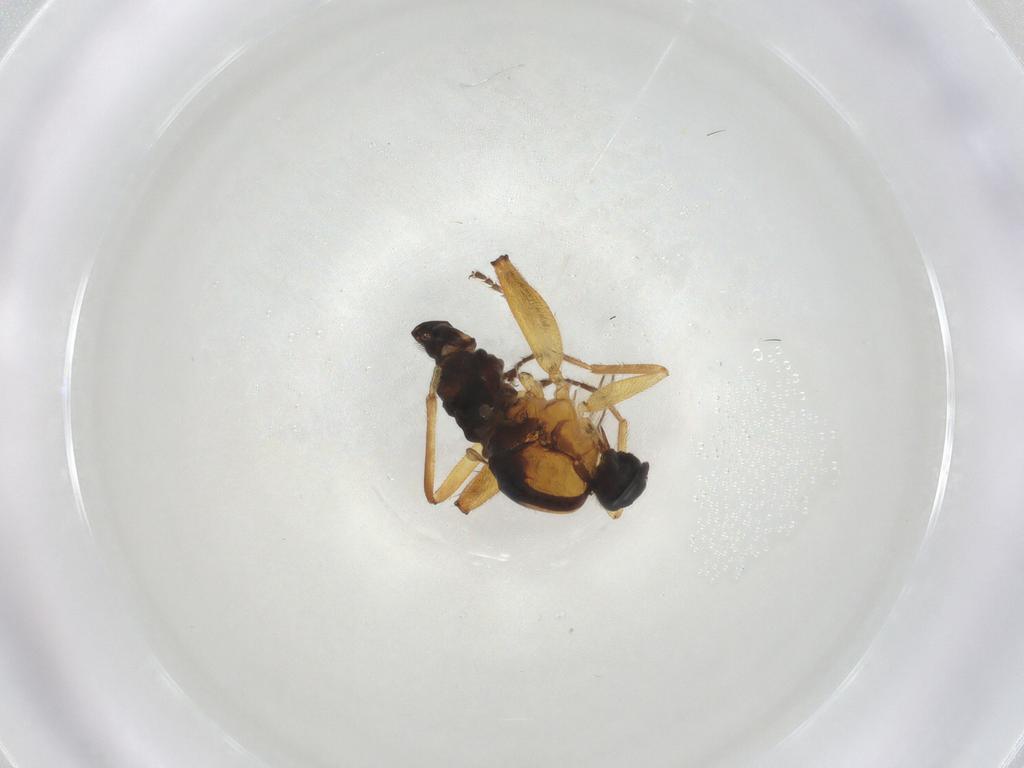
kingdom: Animalia
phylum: Arthropoda
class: Insecta
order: Diptera
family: Hybotidae
